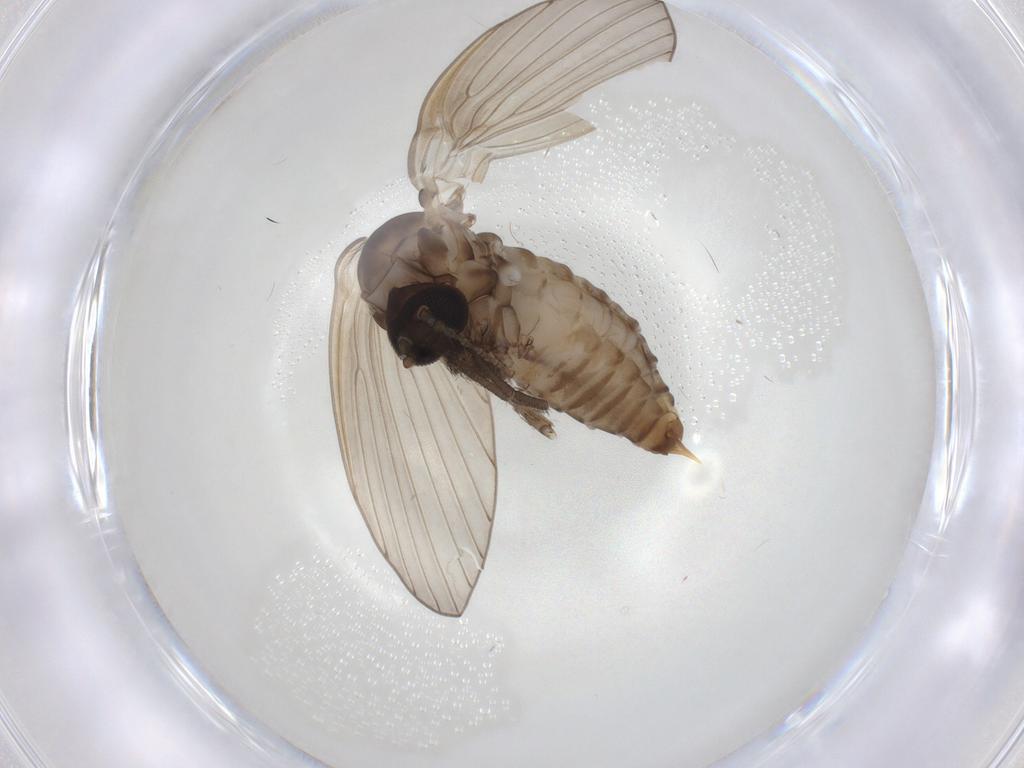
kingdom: Animalia
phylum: Arthropoda
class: Insecta
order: Diptera
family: Psychodidae
